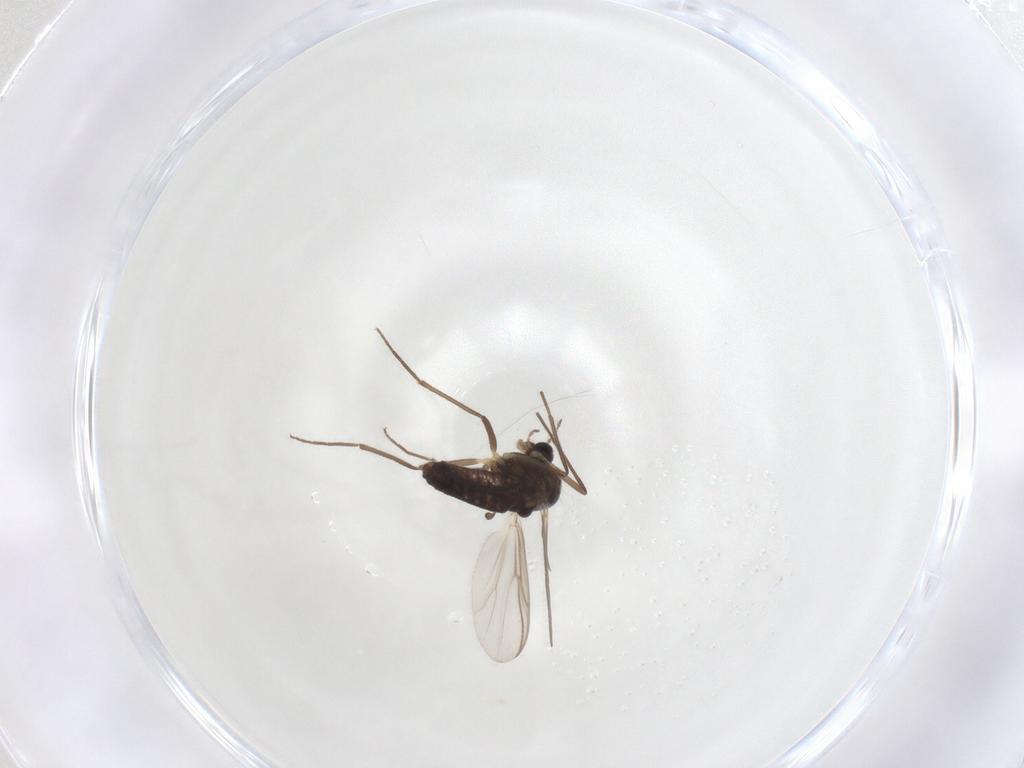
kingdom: Animalia
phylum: Arthropoda
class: Insecta
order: Diptera
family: Chironomidae
